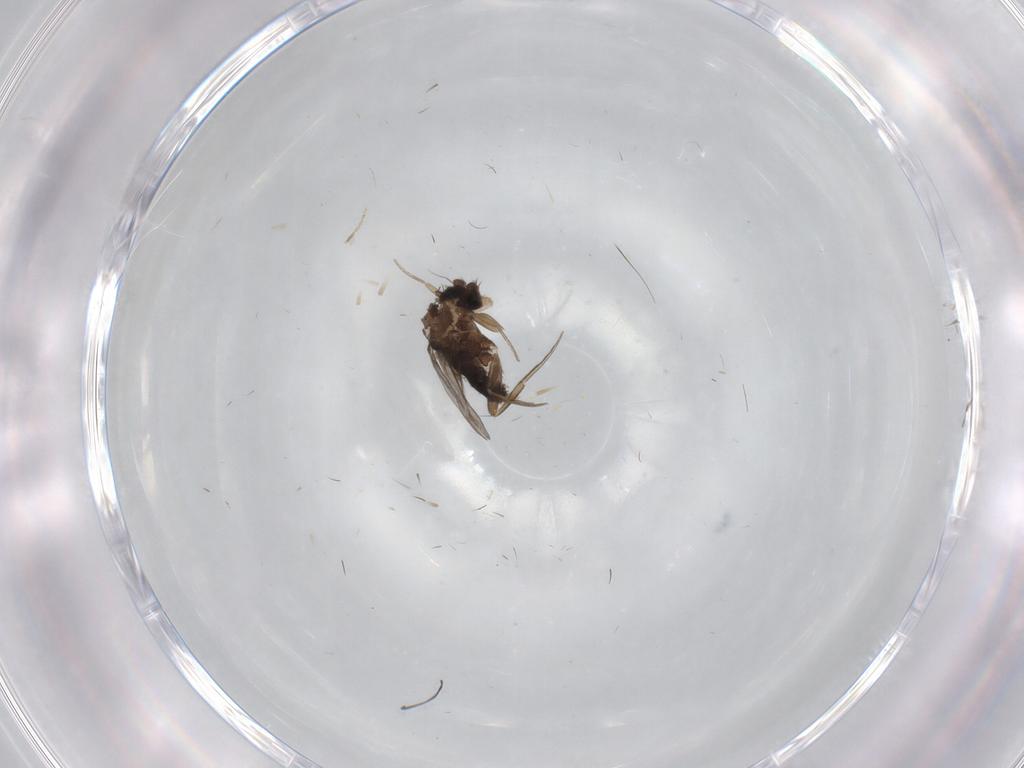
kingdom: Animalia
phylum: Arthropoda
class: Insecta
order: Diptera
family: Ceratopogonidae
